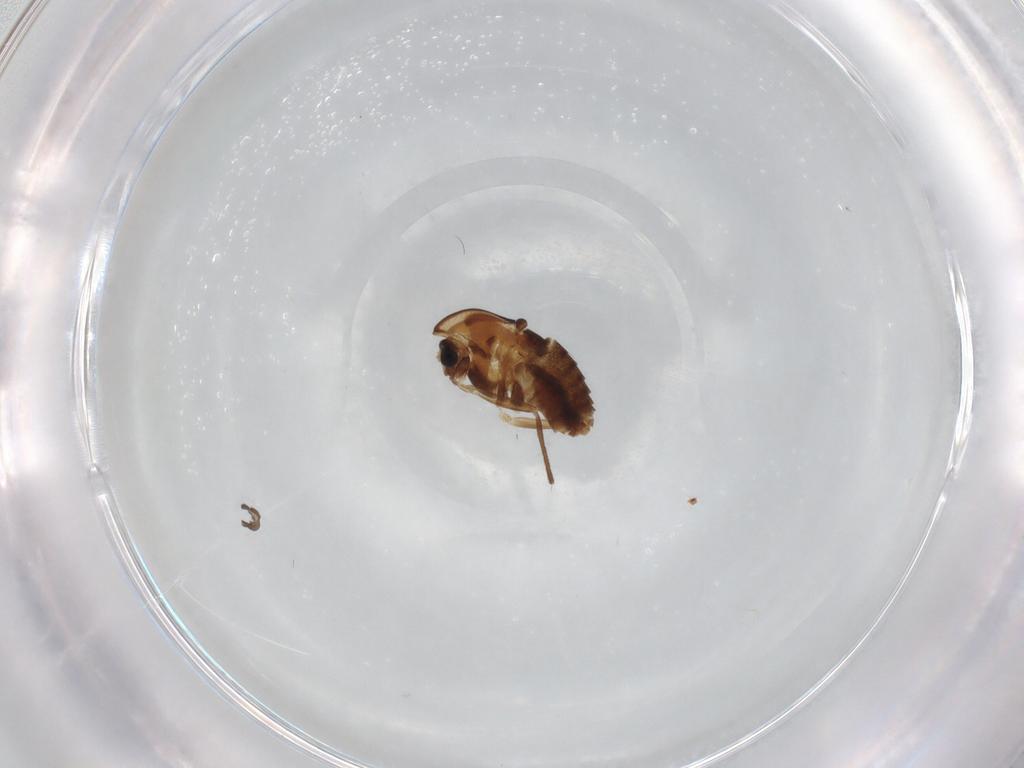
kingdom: Animalia
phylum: Arthropoda
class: Insecta
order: Diptera
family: Sciaridae
